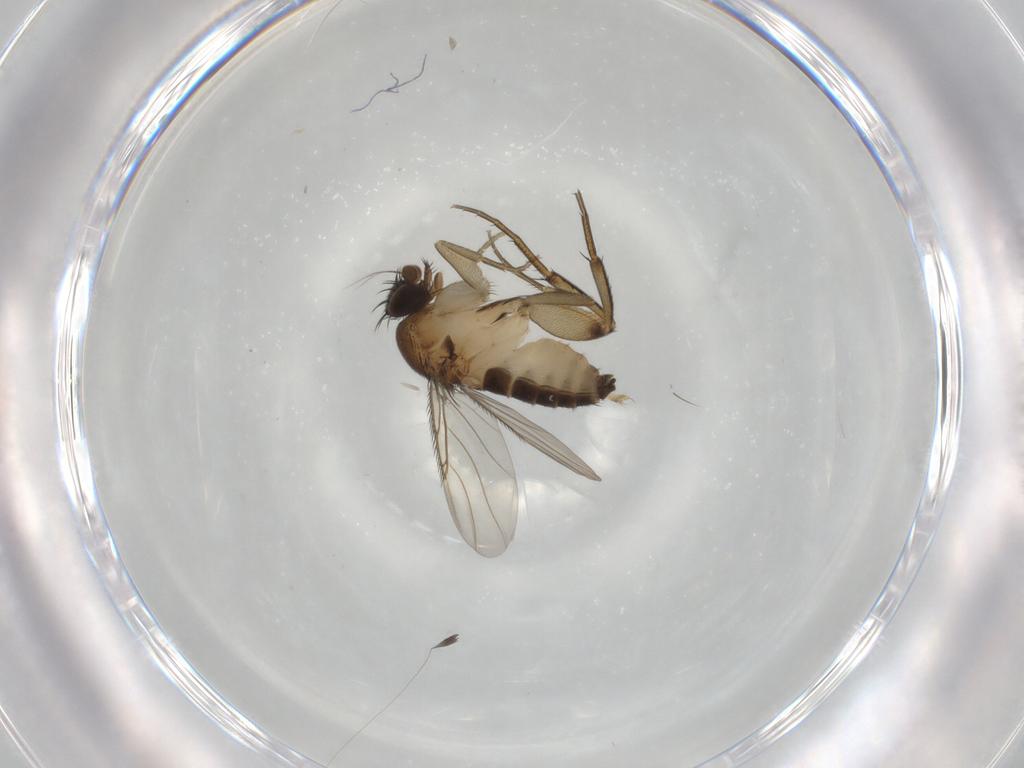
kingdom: Animalia
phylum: Arthropoda
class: Insecta
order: Diptera
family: Phoridae
